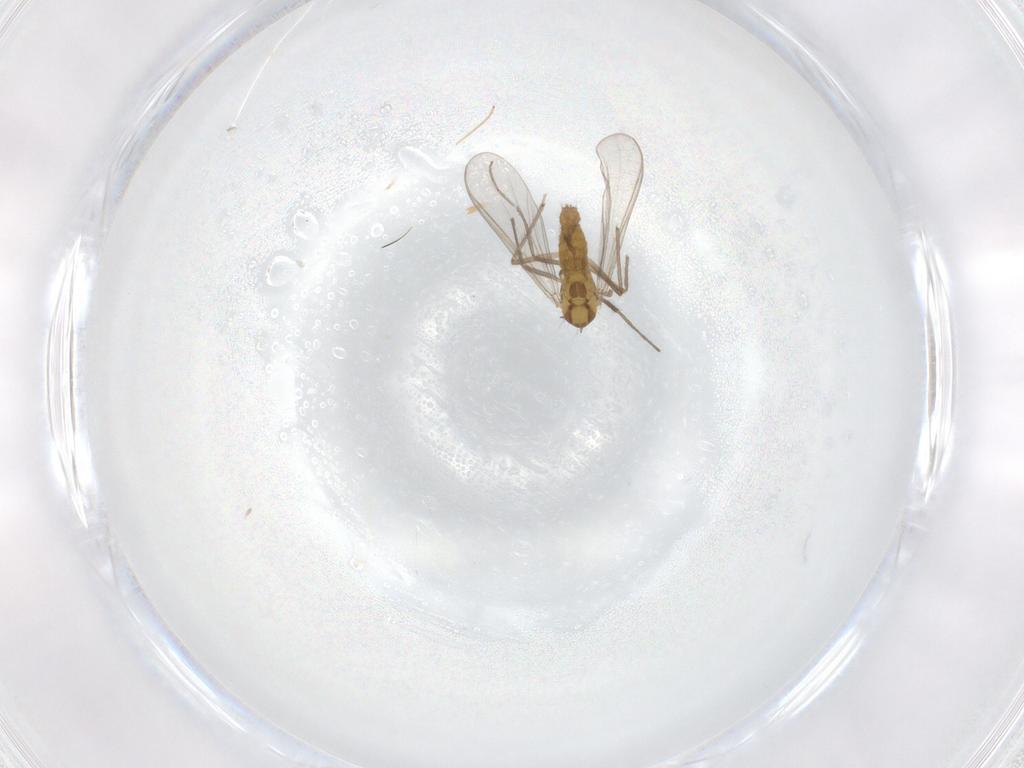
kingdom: Animalia
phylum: Arthropoda
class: Insecta
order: Diptera
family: Chironomidae
